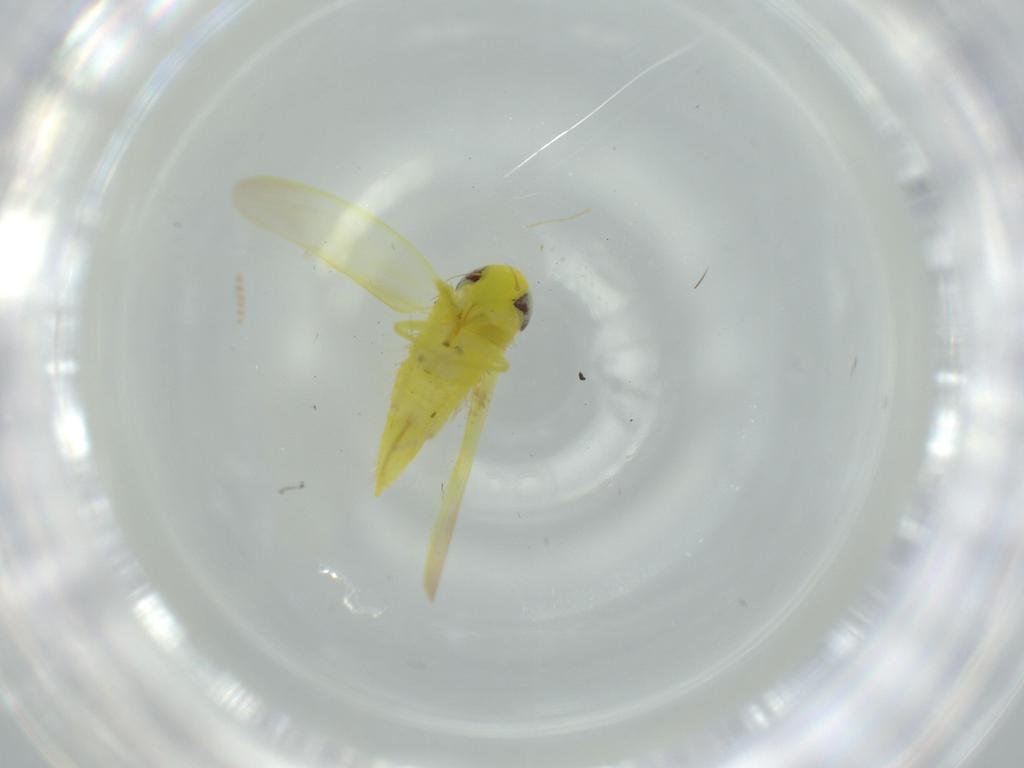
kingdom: Animalia
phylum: Arthropoda
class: Insecta
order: Hemiptera
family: Cicadellidae
